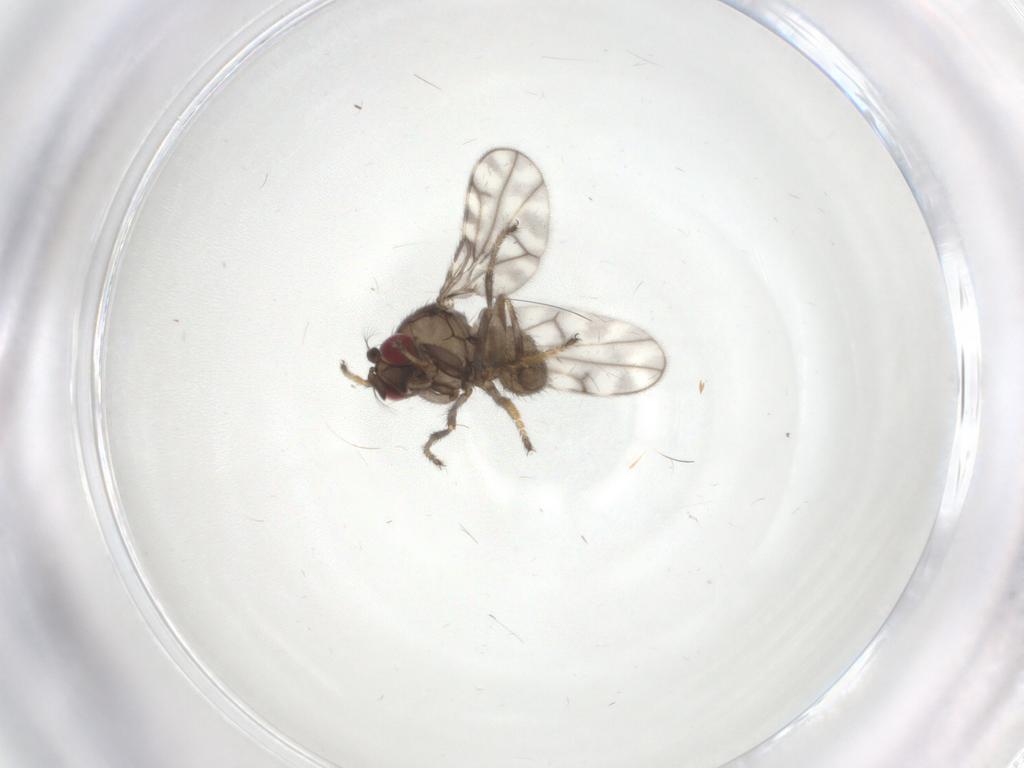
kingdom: Animalia
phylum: Arthropoda
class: Insecta
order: Diptera
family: Ephydridae
